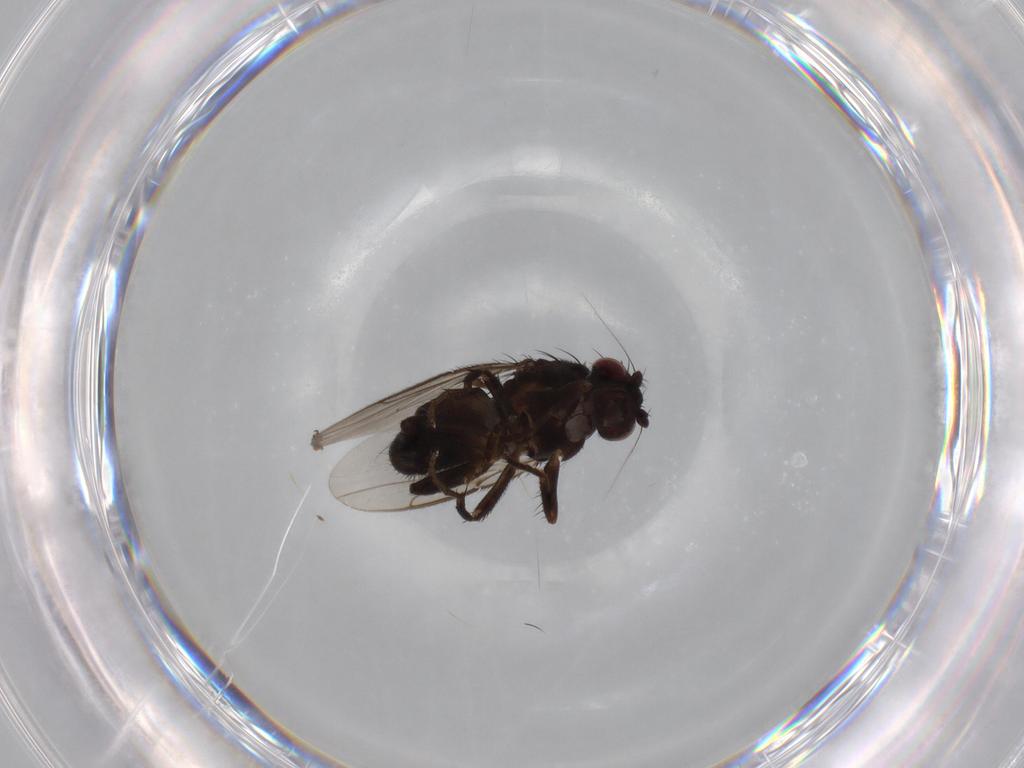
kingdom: Animalia
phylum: Arthropoda
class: Insecta
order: Diptera
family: Sphaeroceridae
